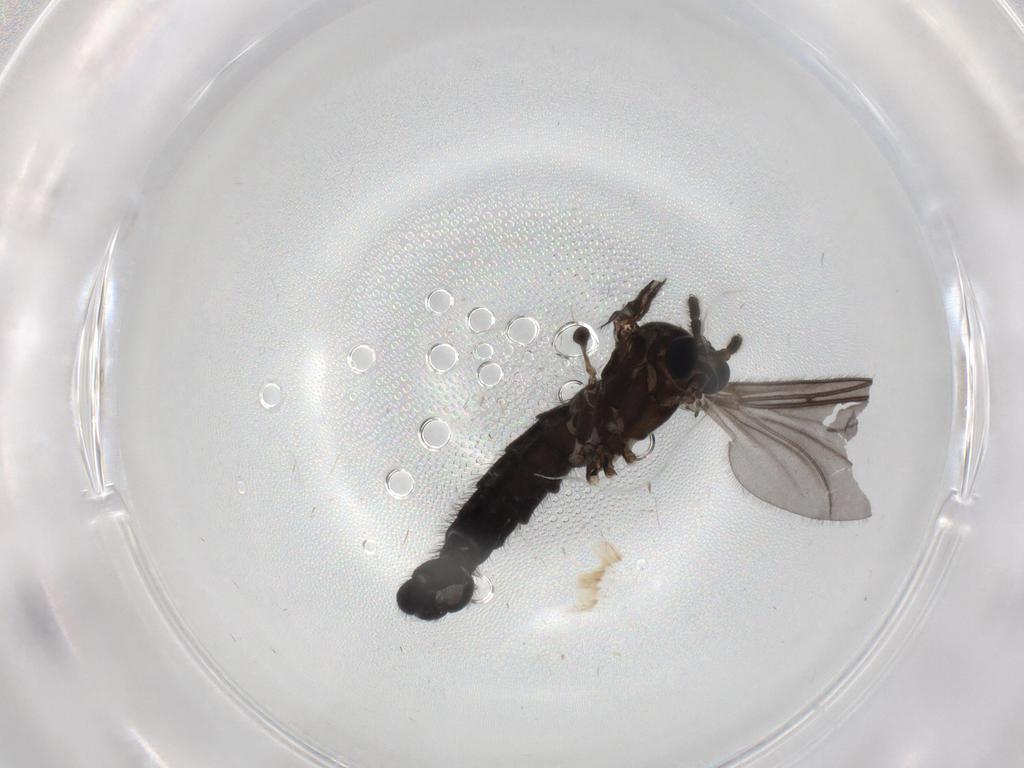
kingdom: Animalia
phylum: Arthropoda
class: Insecta
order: Diptera
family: Sciaridae
